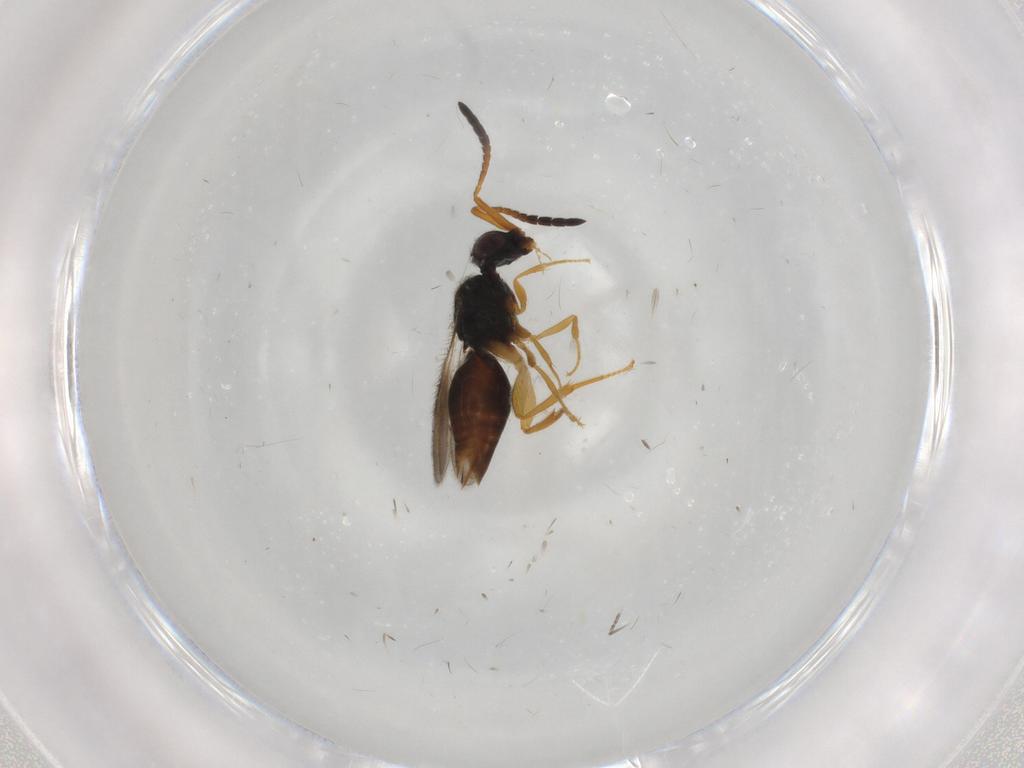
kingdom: Animalia
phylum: Arthropoda
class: Insecta
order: Hymenoptera
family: Ceraphronidae
